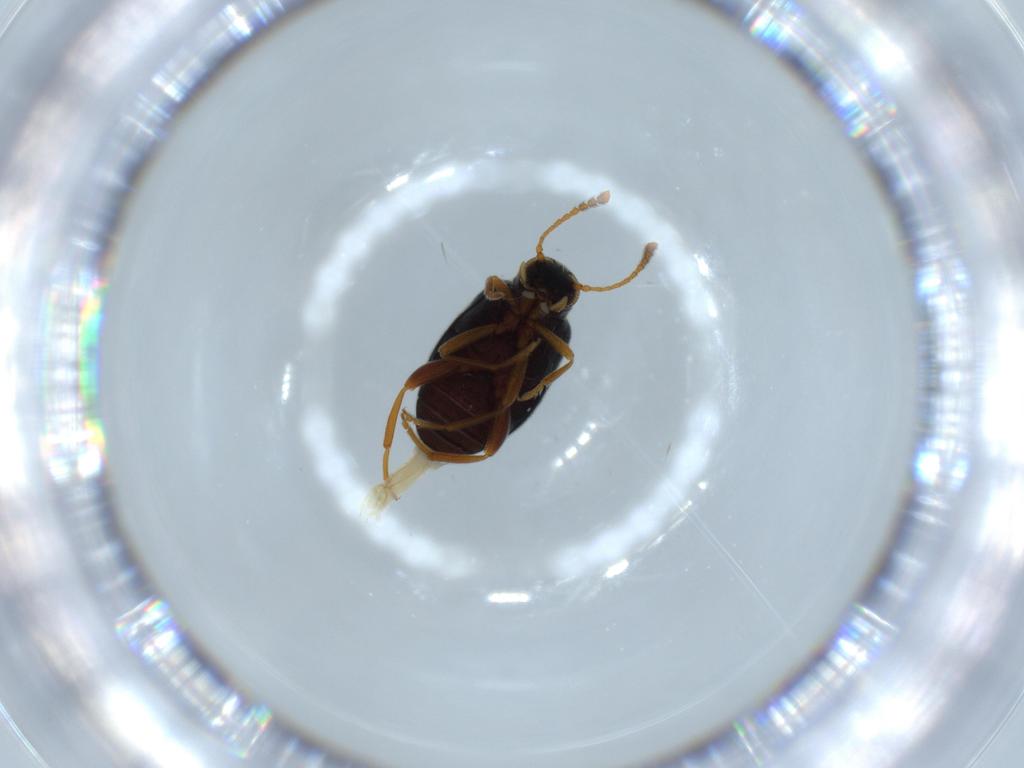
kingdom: Animalia
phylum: Arthropoda
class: Insecta
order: Coleoptera
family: Aderidae
